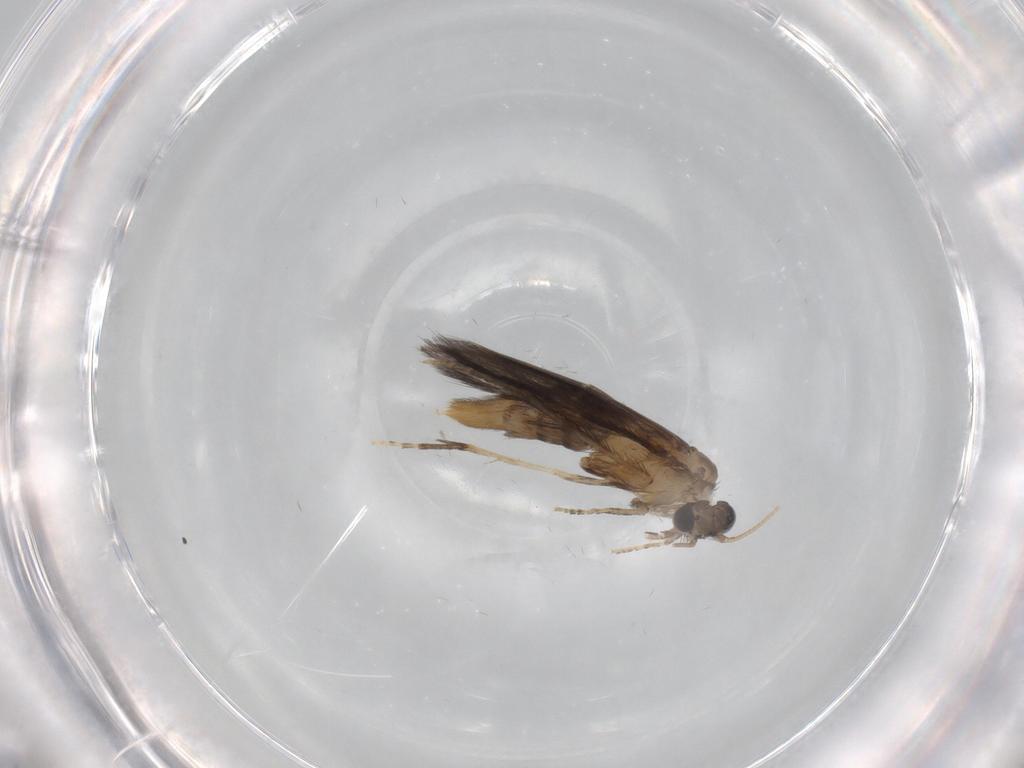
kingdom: Animalia
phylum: Arthropoda
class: Insecta
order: Trichoptera
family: Hydroptilidae
